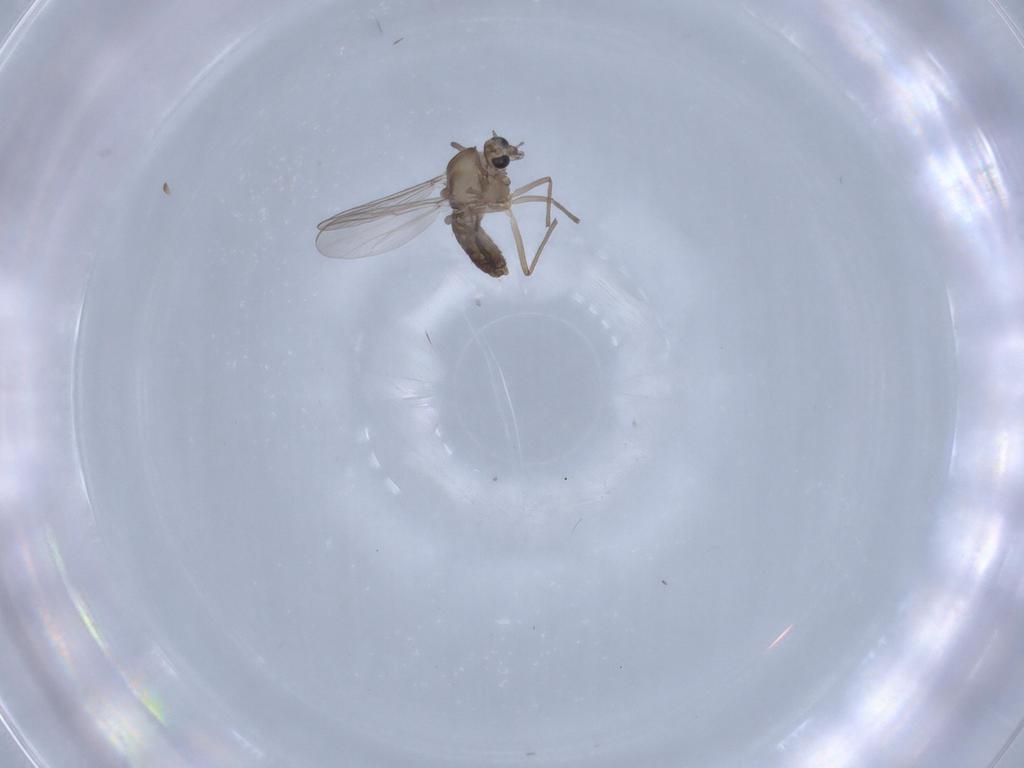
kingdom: Animalia
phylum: Arthropoda
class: Insecta
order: Diptera
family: Chironomidae
